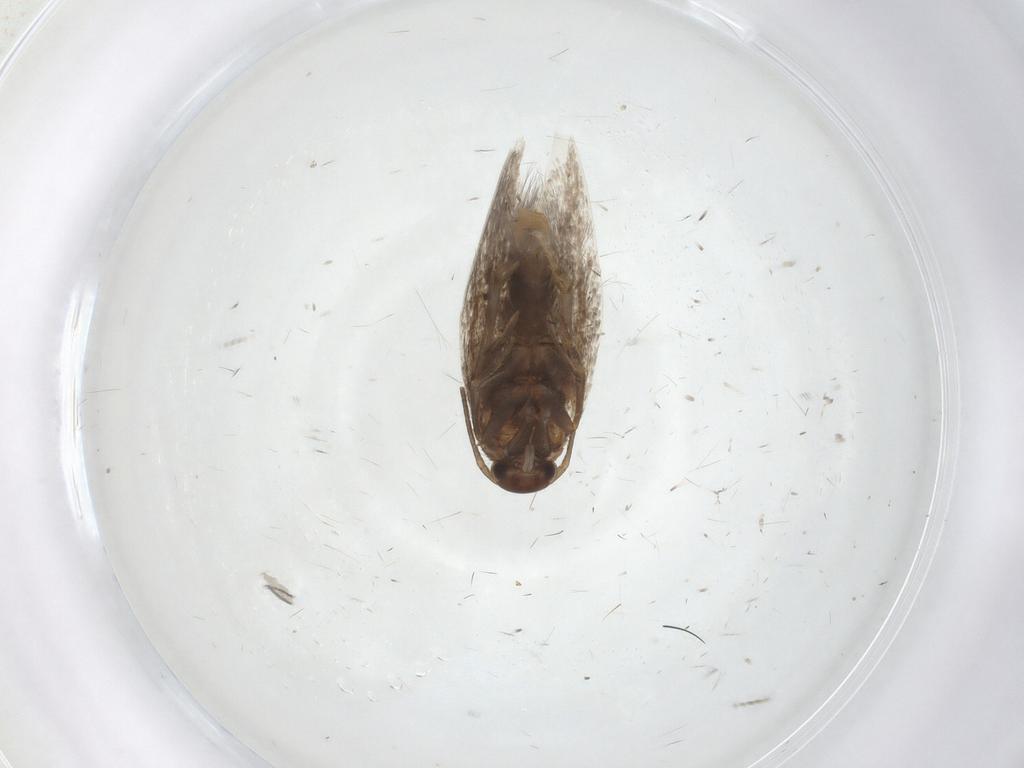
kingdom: Animalia
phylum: Arthropoda
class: Insecta
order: Lepidoptera
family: Elachistidae
